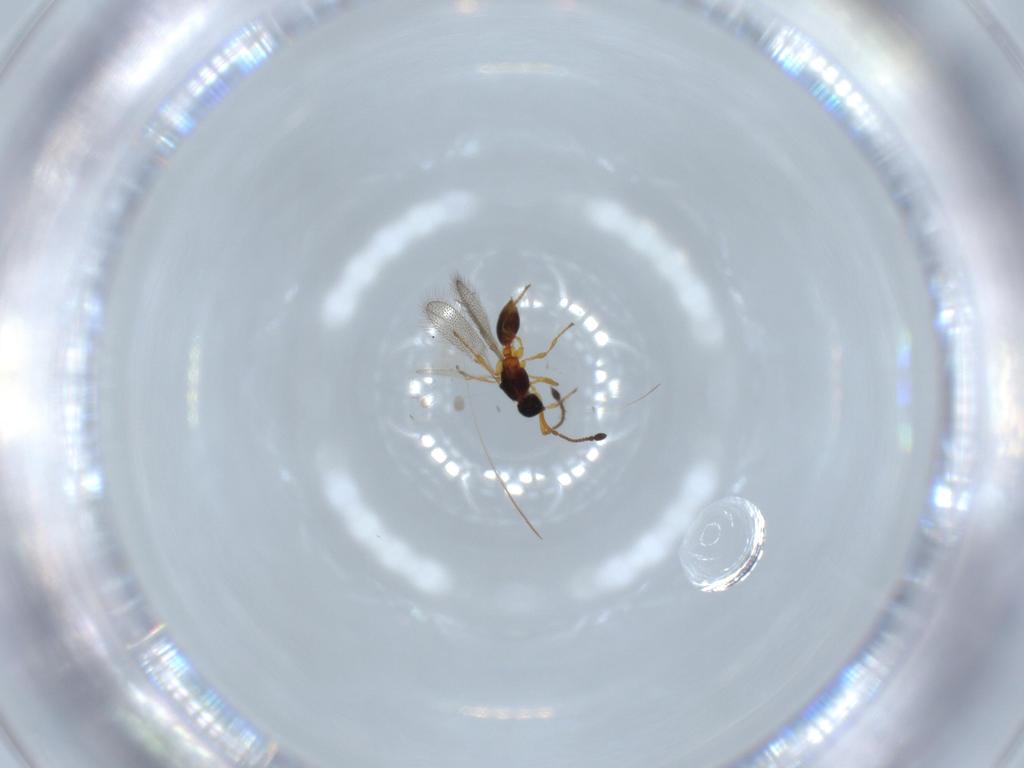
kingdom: Animalia
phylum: Arthropoda
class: Insecta
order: Hymenoptera
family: Diapriidae
